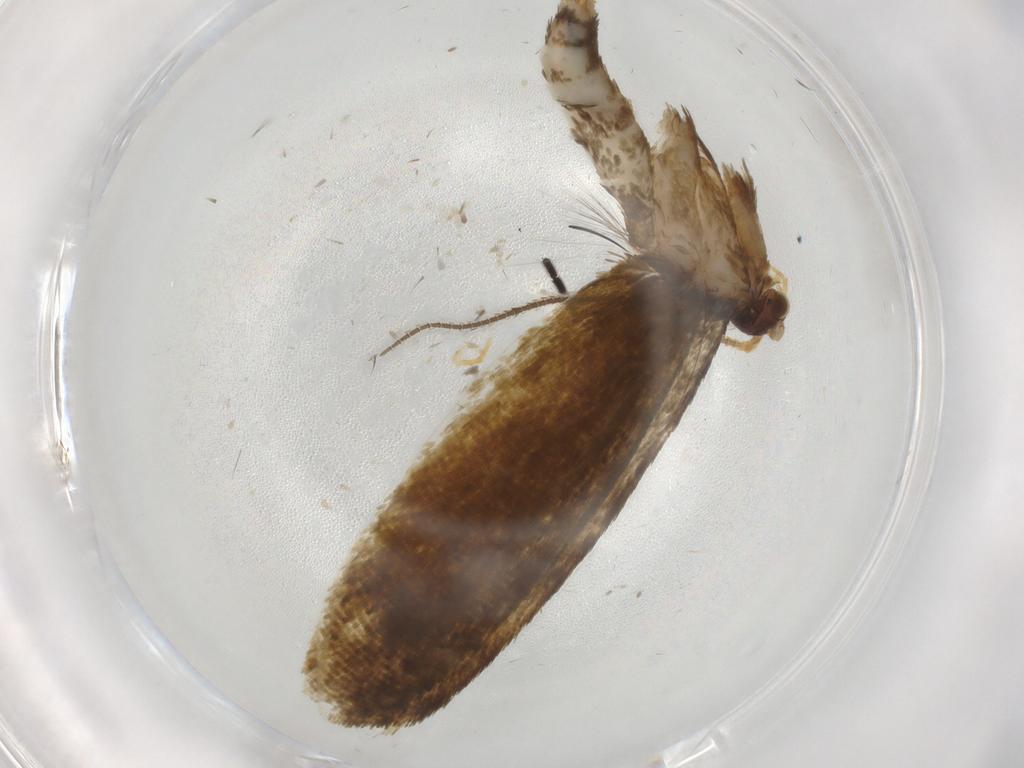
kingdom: Animalia
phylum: Arthropoda
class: Insecta
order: Lepidoptera
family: Tineidae
